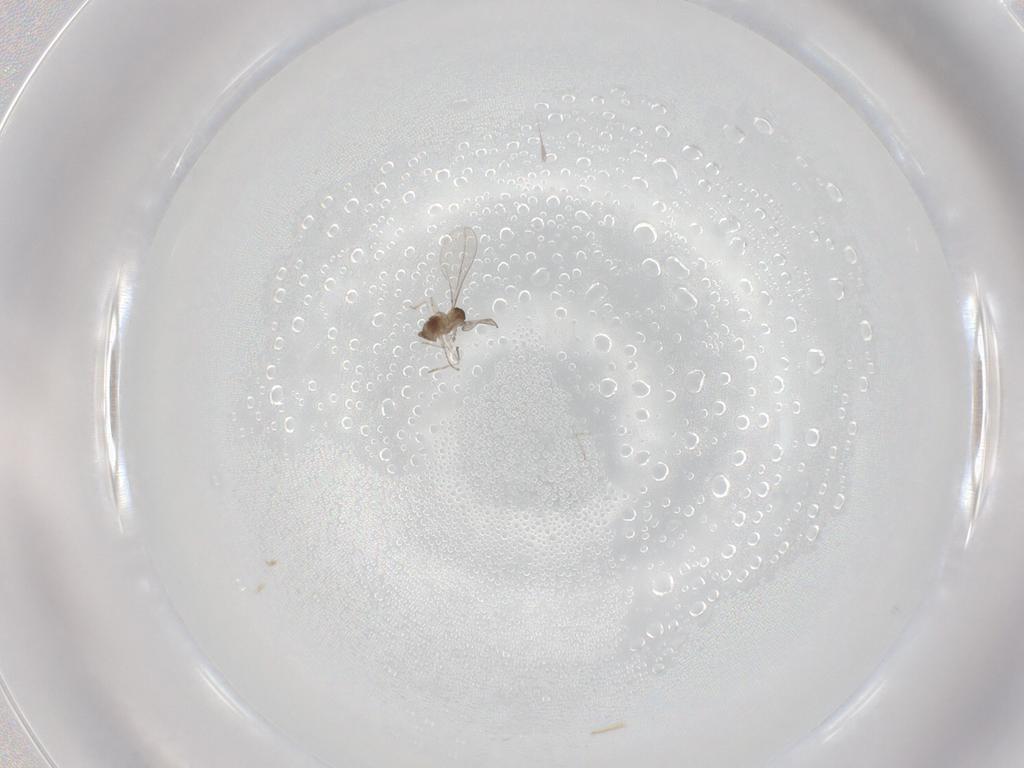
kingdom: Animalia
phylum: Arthropoda
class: Insecta
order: Diptera
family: Cecidomyiidae
